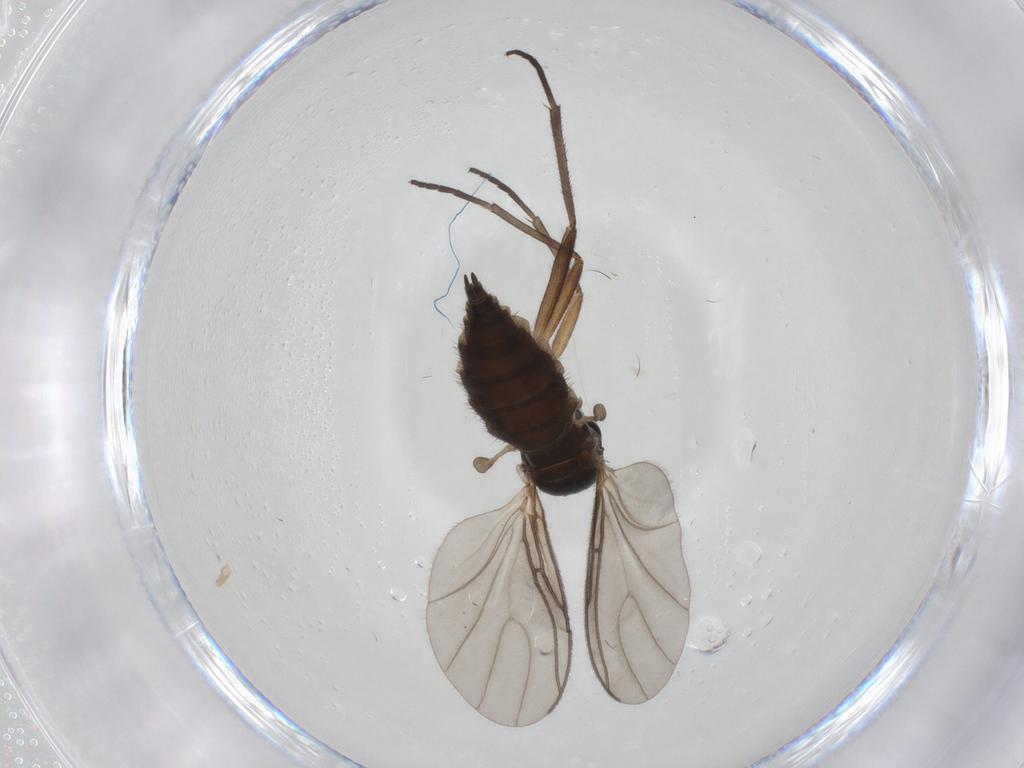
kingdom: Animalia
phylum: Arthropoda
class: Insecta
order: Diptera
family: Sciaridae
